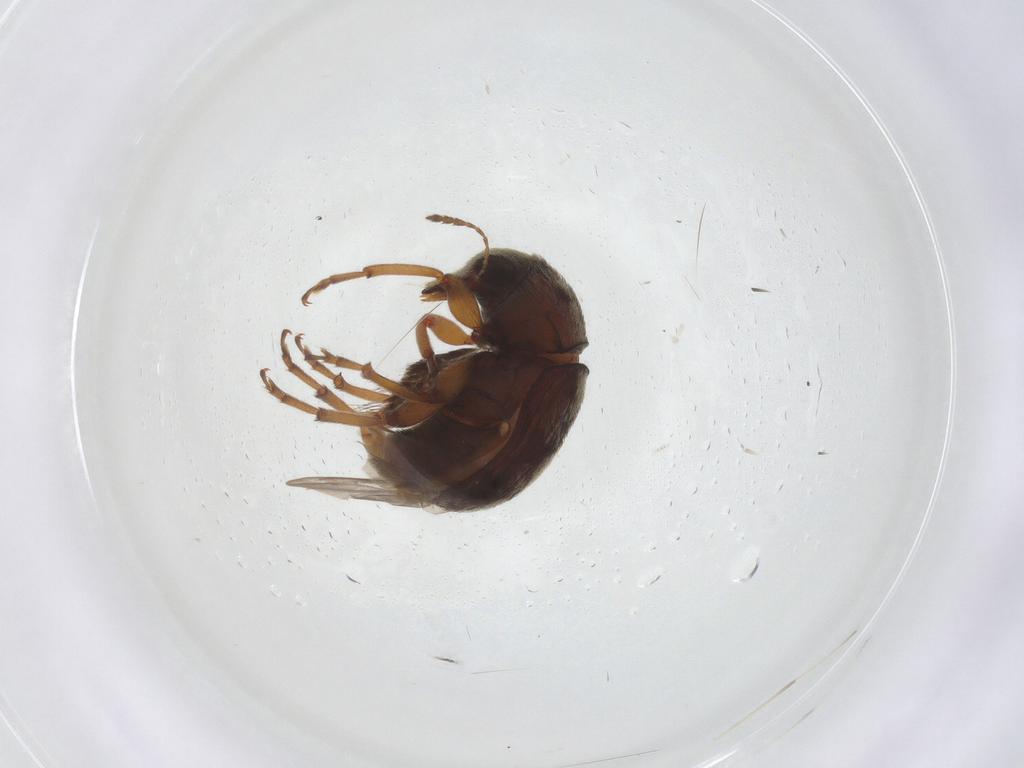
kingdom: Animalia
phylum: Arthropoda
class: Insecta
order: Coleoptera
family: Anthribidae
